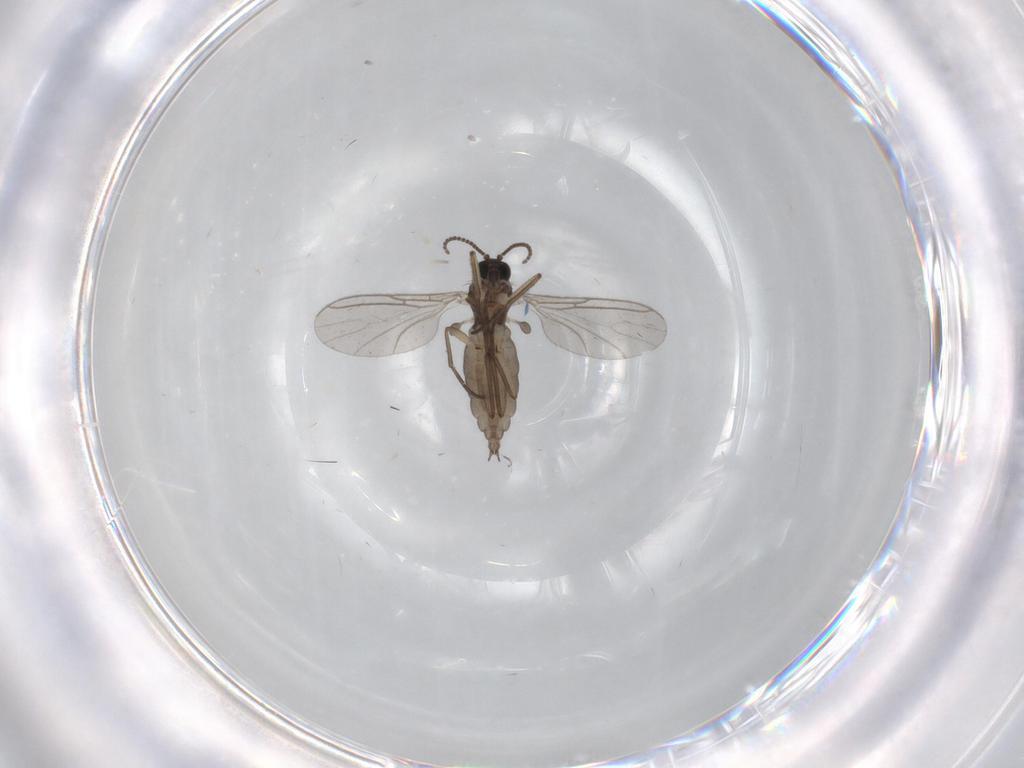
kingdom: Animalia
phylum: Arthropoda
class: Insecta
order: Diptera
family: Sciaridae
